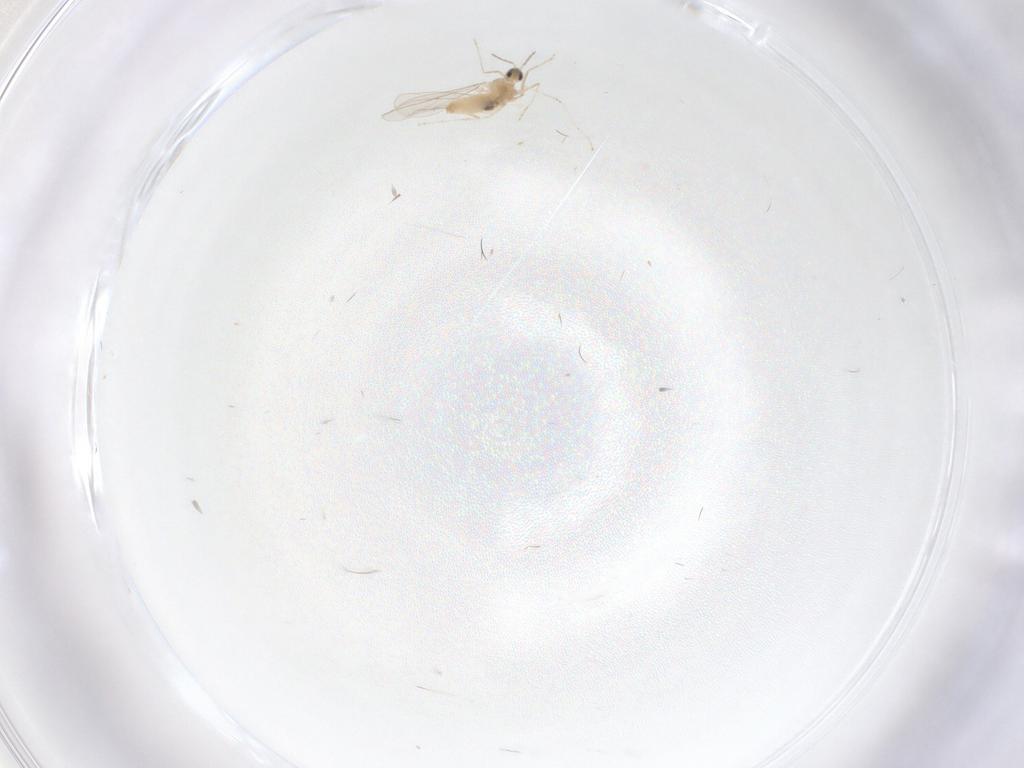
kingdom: Animalia
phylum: Arthropoda
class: Insecta
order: Diptera
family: Cecidomyiidae
